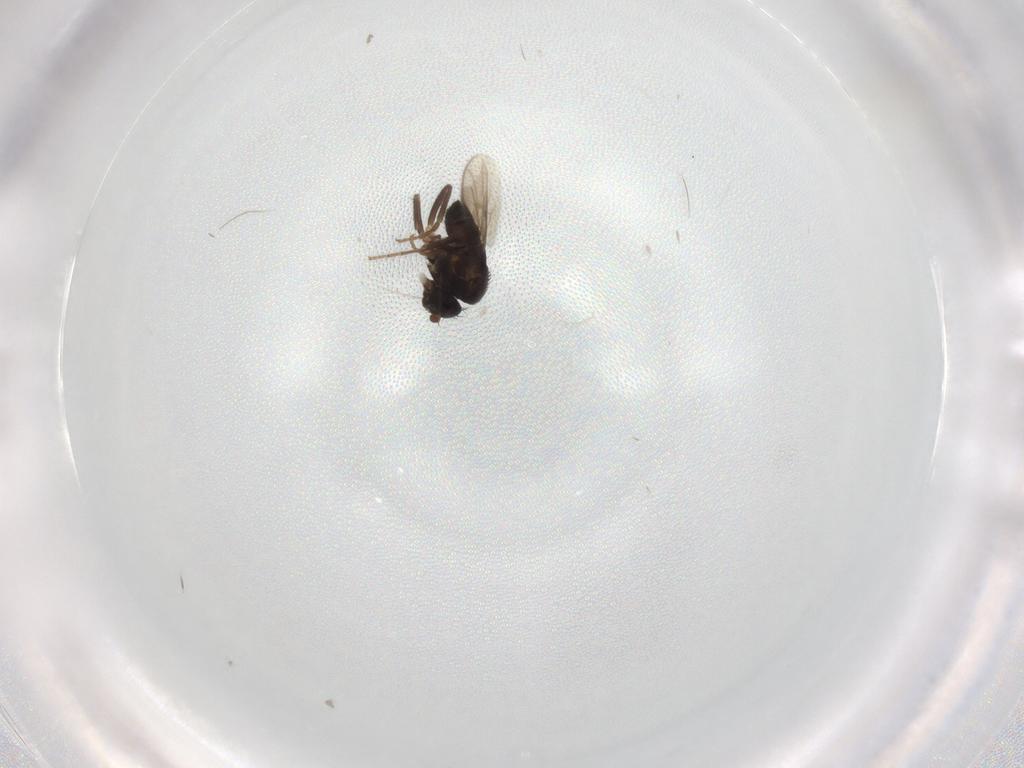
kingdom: Animalia
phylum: Arthropoda
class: Insecta
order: Diptera
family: Sphaeroceridae
